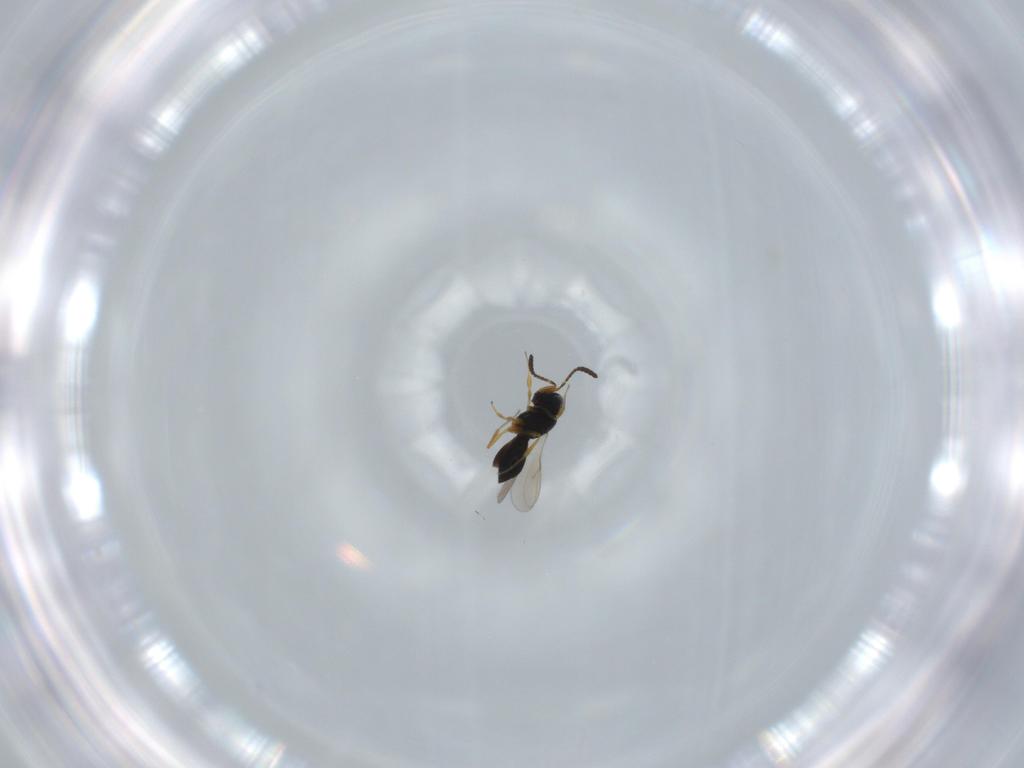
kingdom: Animalia
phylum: Arthropoda
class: Insecta
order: Hymenoptera
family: Scelionidae
